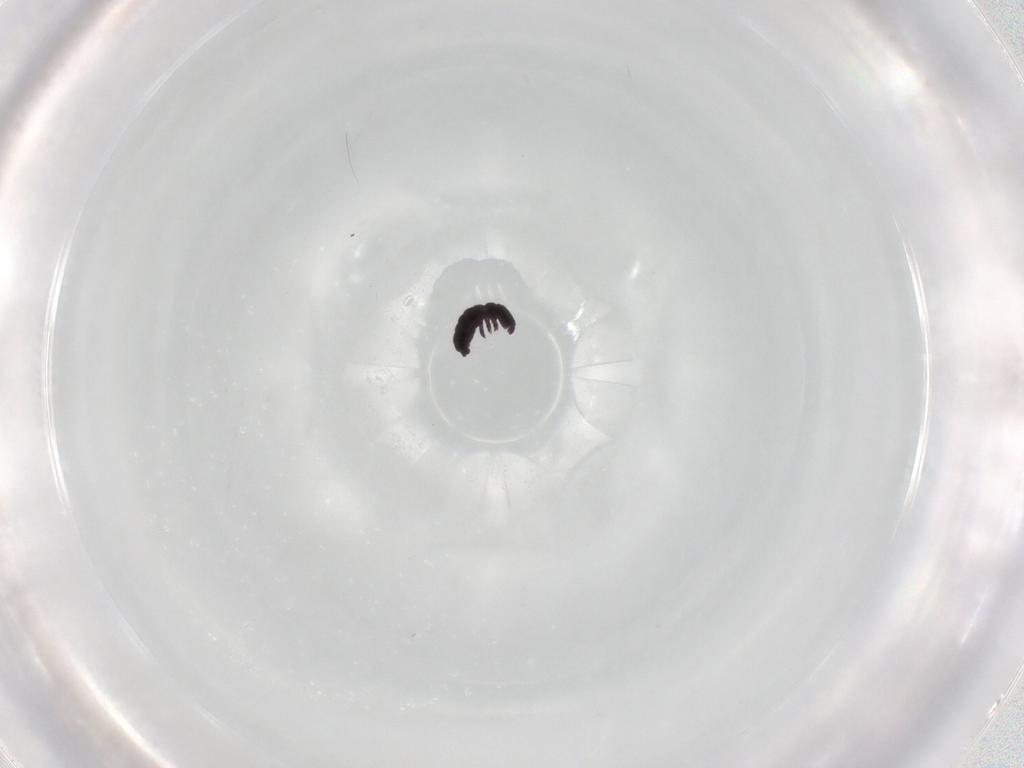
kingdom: Animalia
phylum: Arthropoda
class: Collembola
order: Poduromorpha
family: Hypogastruridae
